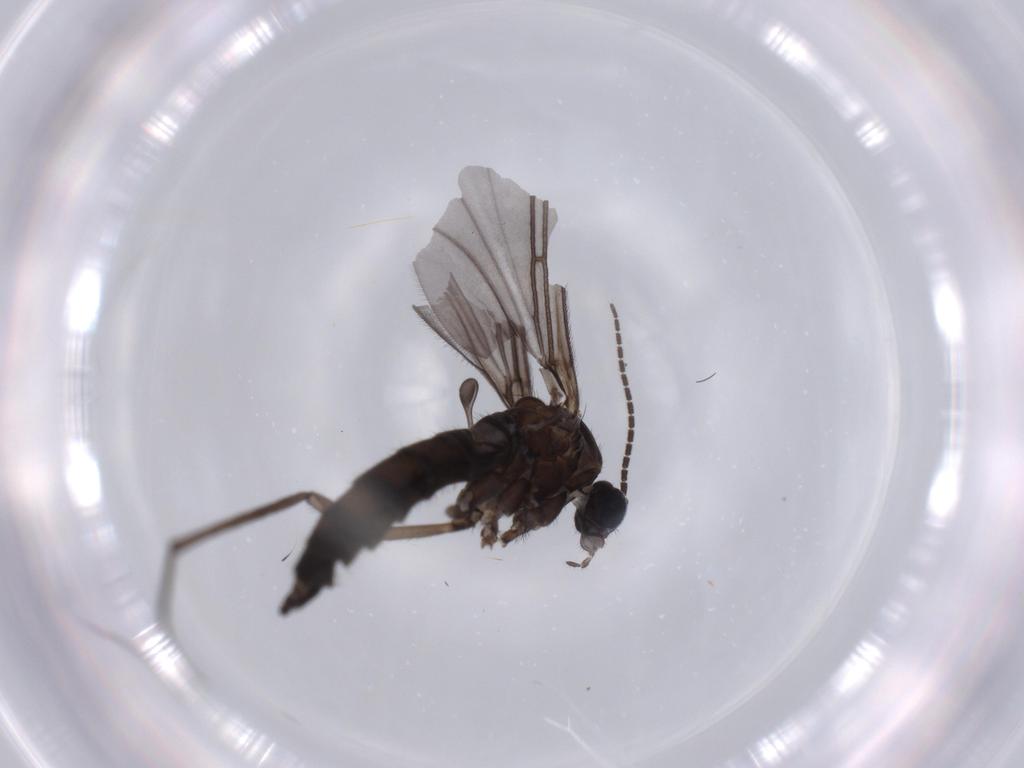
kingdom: Animalia
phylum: Arthropoda
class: Insecta
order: Diptera
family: Sciaridae
